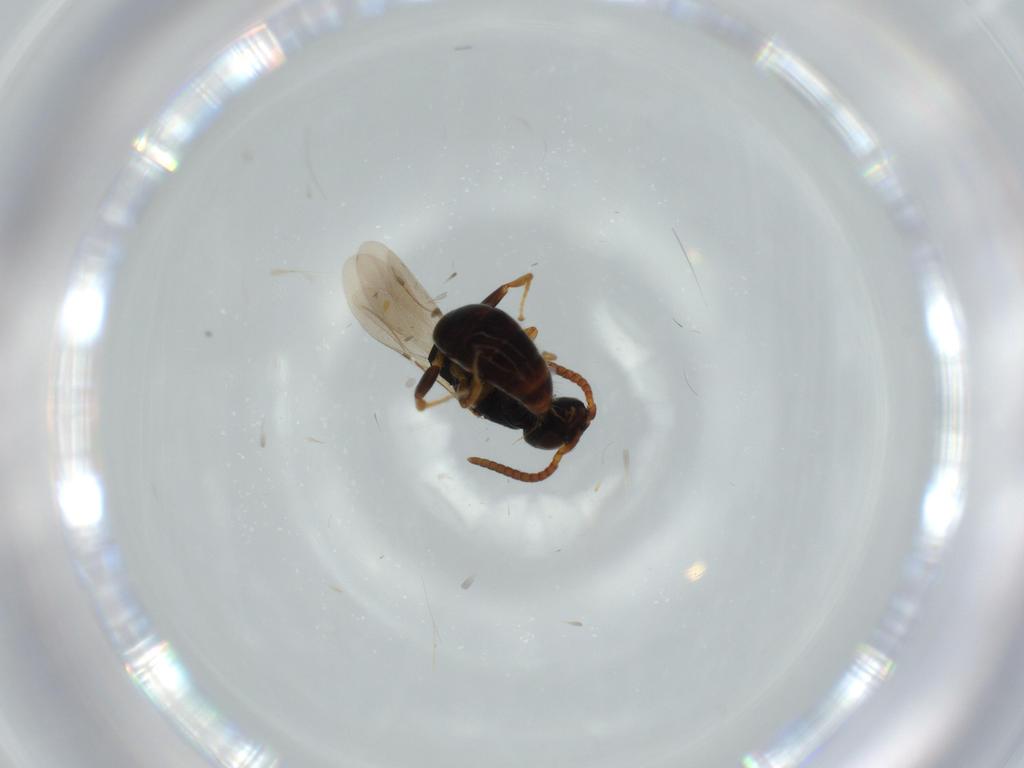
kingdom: Animalia
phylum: Arthropoda
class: Insecta
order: Hymenoptera
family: Bethylidae
